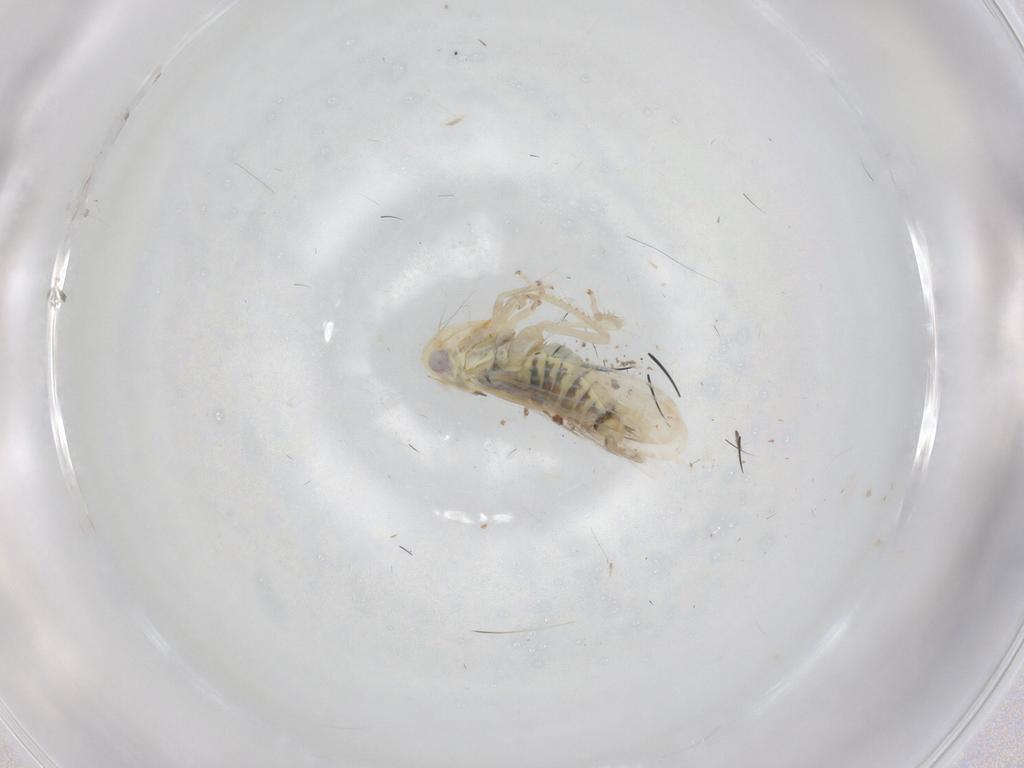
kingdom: Animalia
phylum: Arthropoda
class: Insecta
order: Hemiptera
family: Cicadellidae
